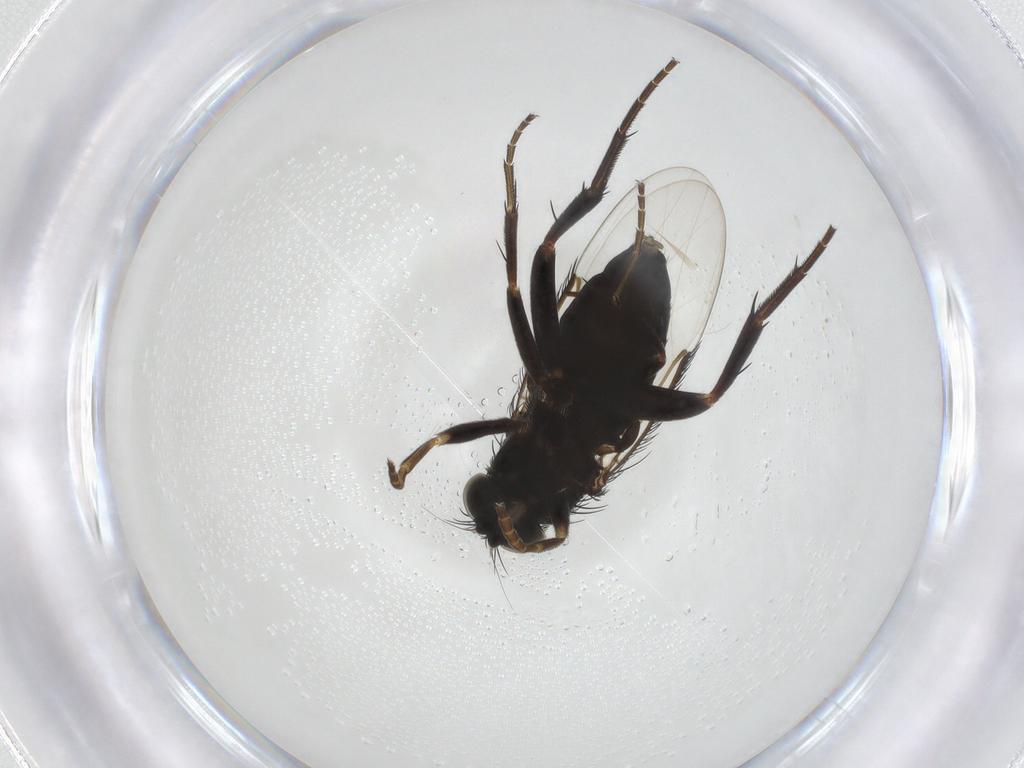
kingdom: Animalia
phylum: Arthropoda
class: Insecta
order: Diptera
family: Phoridae
